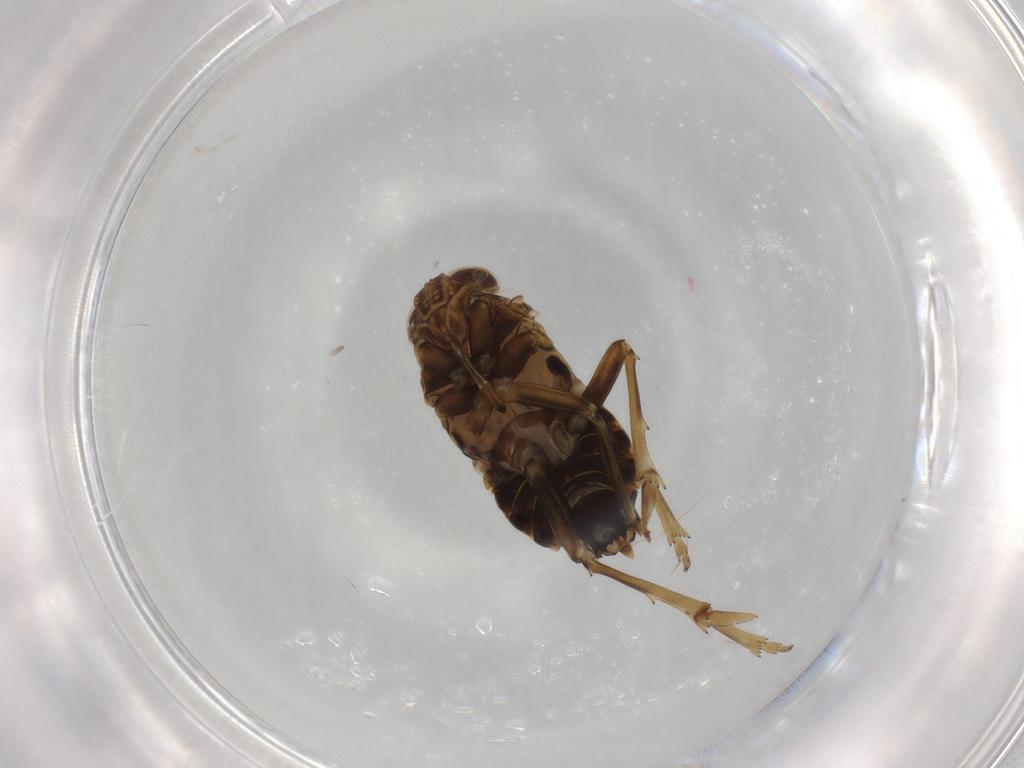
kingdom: Animalia
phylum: Arthropoda
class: Insecta
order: Hemiptera
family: Delphacidae
